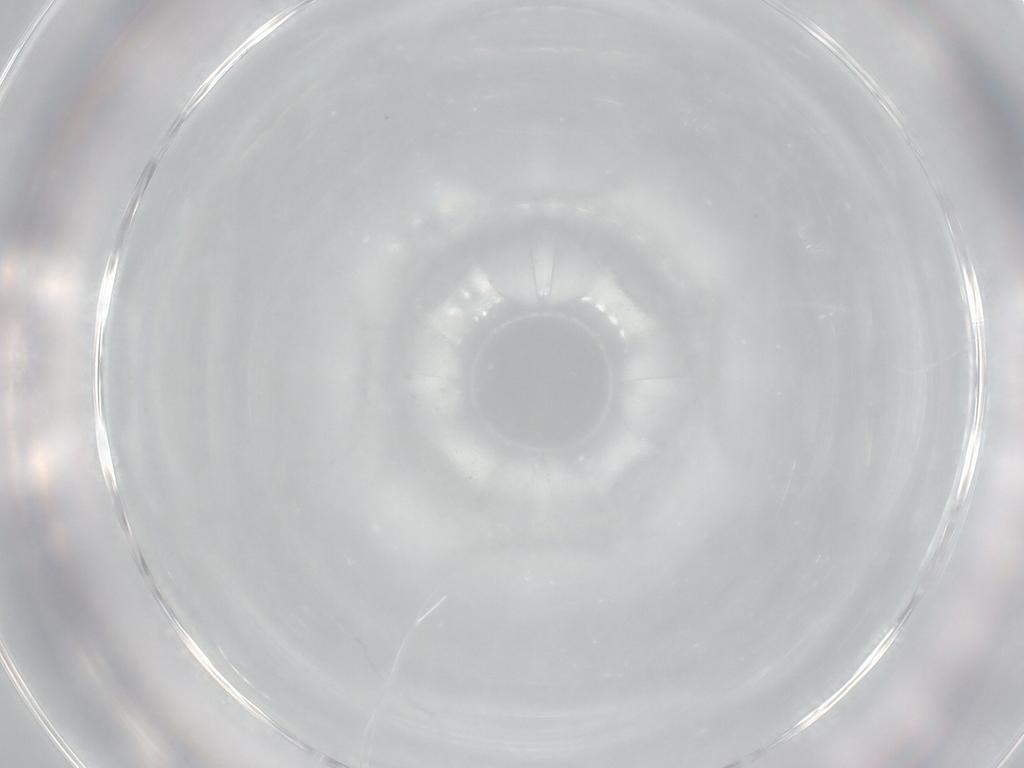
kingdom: Animalia
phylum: Arthropoda
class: Insecta
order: Diptera
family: Chironomidae
